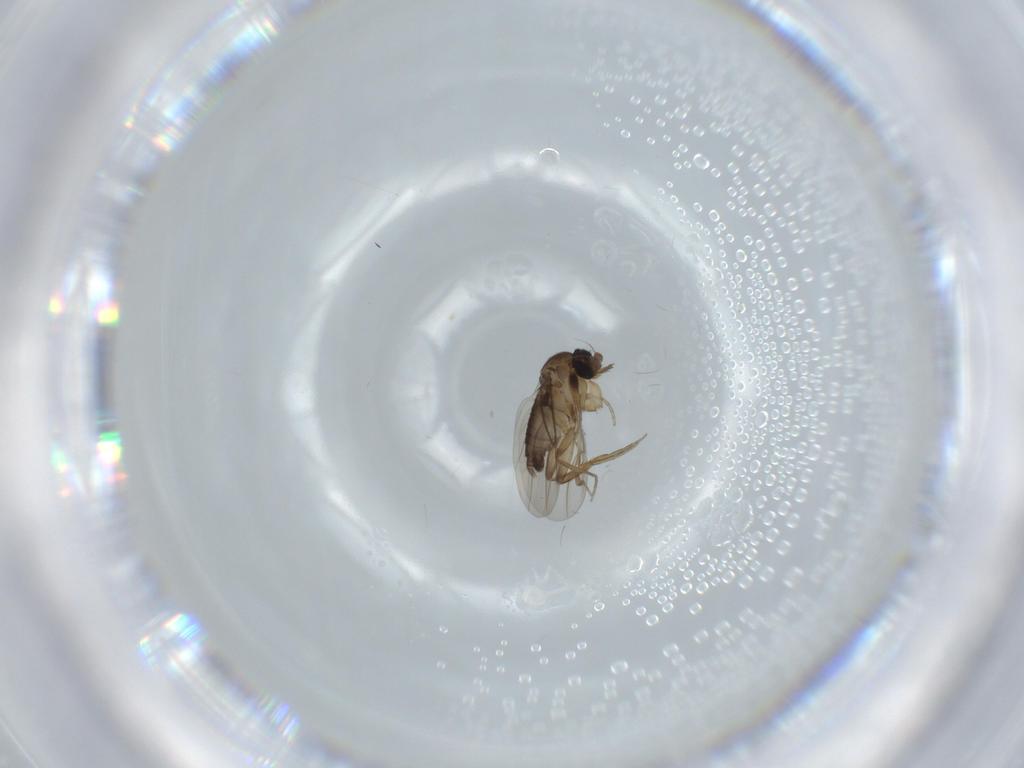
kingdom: Animalia
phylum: Arthropoda
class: Insecta
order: Diptera
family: Phoridae
